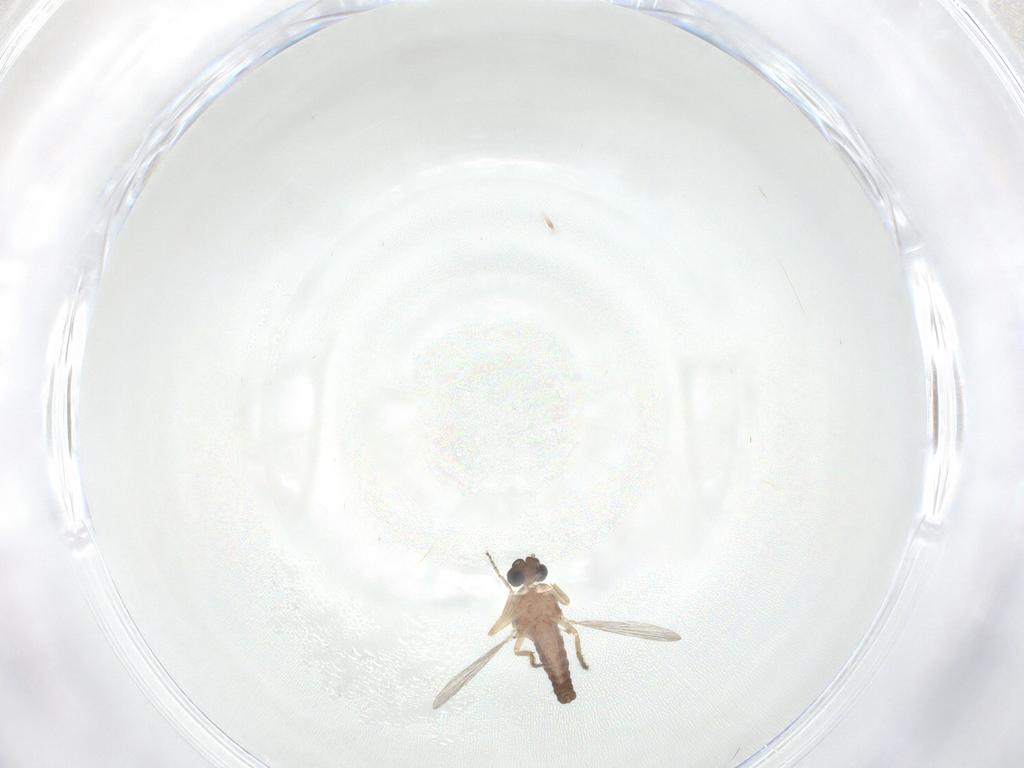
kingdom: Animalia
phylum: Arthropoda
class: Insecta
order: Diptera
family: Ceratopogonidae
